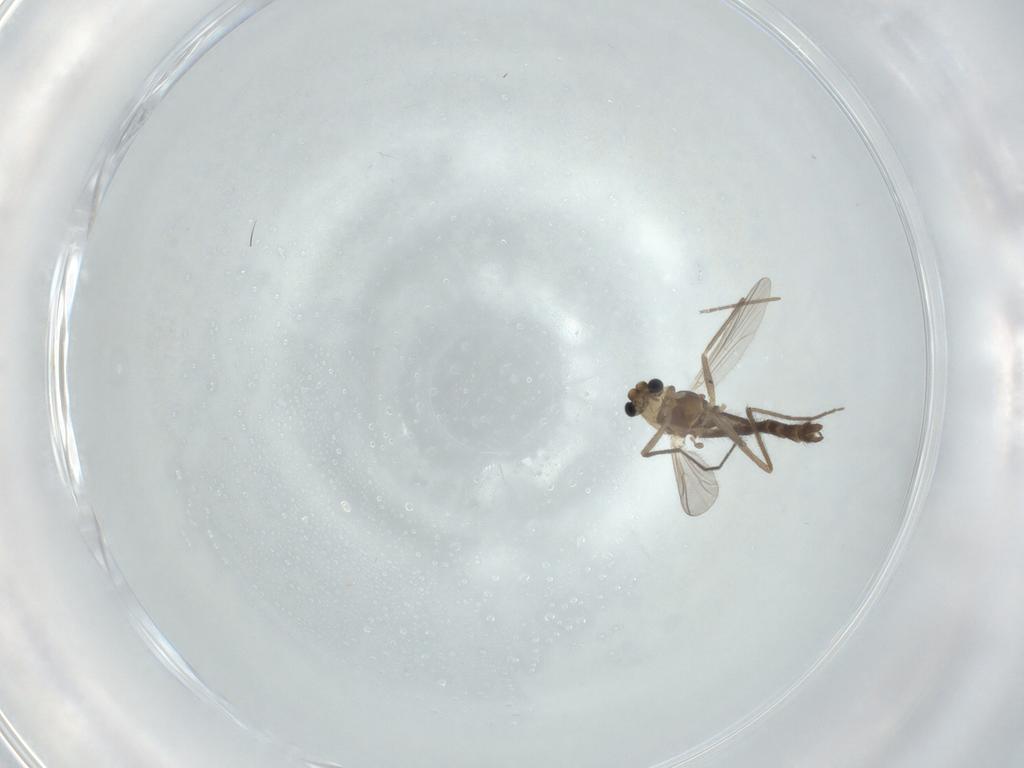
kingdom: Animalia
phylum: Arthropoda
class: Insecta
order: Diptera
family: Chironomidae
